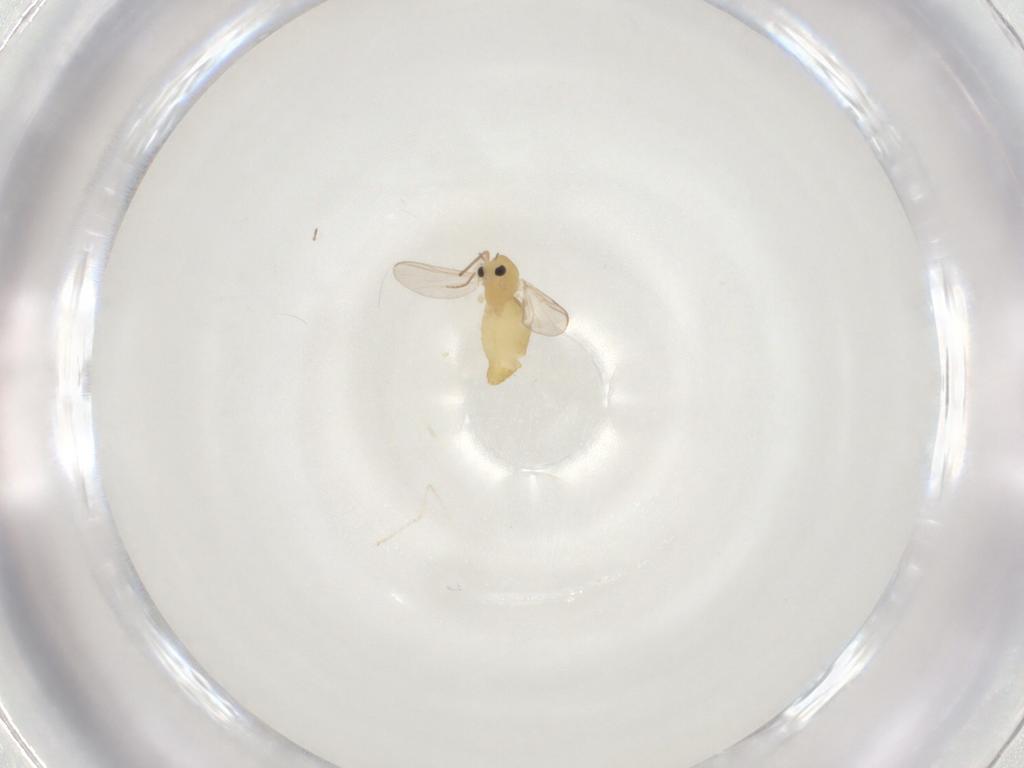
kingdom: Animalia
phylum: Arthropoda
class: Insecta
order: Diptera
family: Chironomidae
